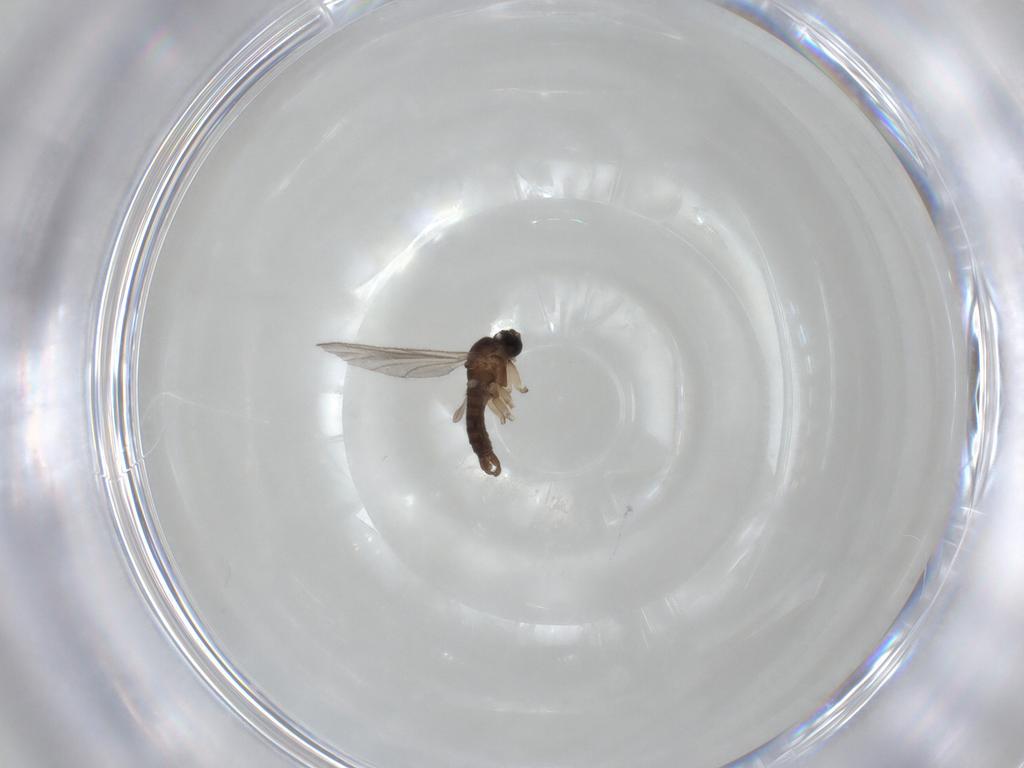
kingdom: Animalia
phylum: Arthropoda
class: Insecta
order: Diptera
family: Sciaridae
